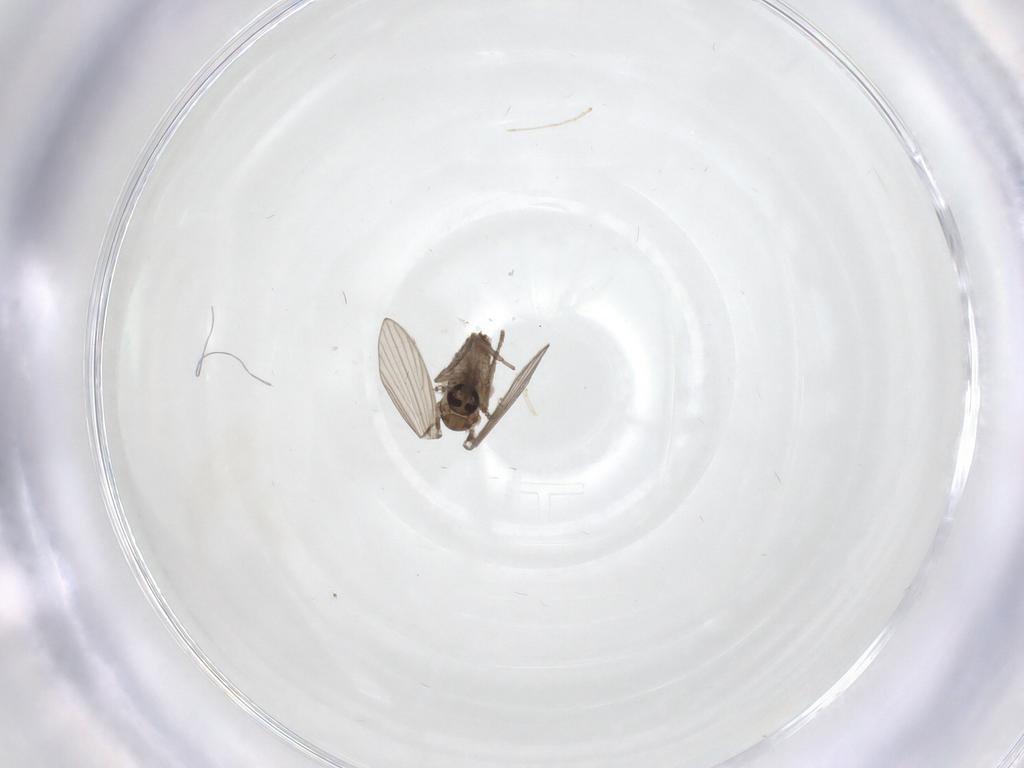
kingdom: Animalia
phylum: Arthropoda
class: Insecta
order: Diptera
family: Psychodidae
